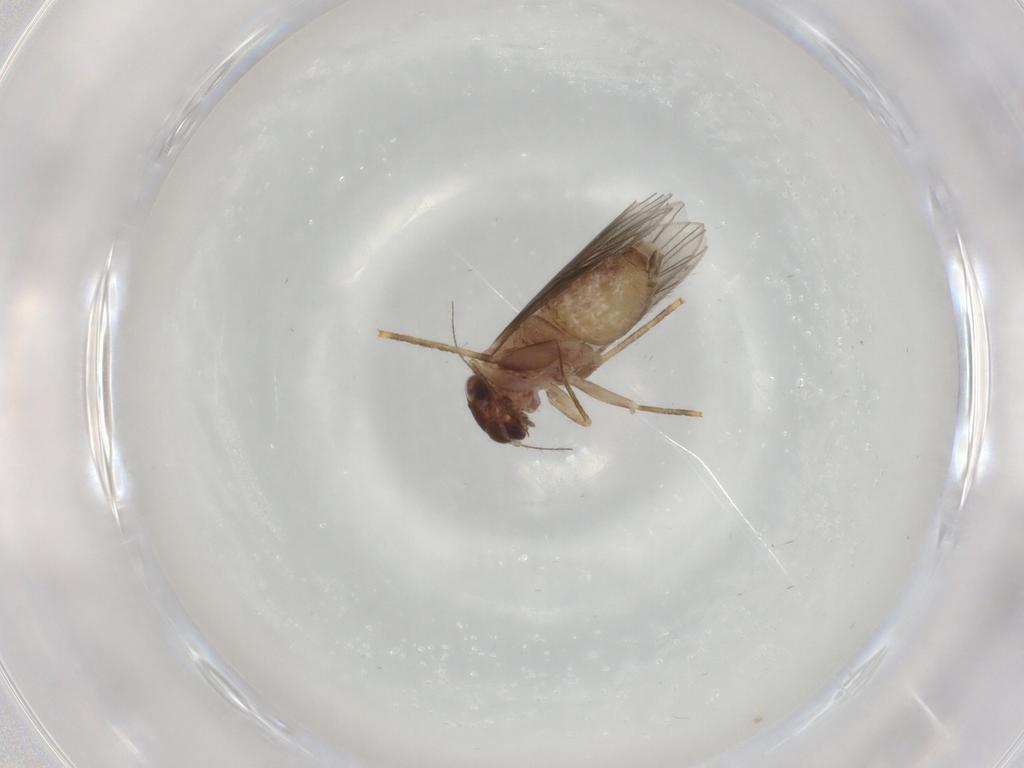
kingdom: Animalia
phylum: Arthropoda
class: Insecta
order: Psocodea
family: Lepidopsocidae
